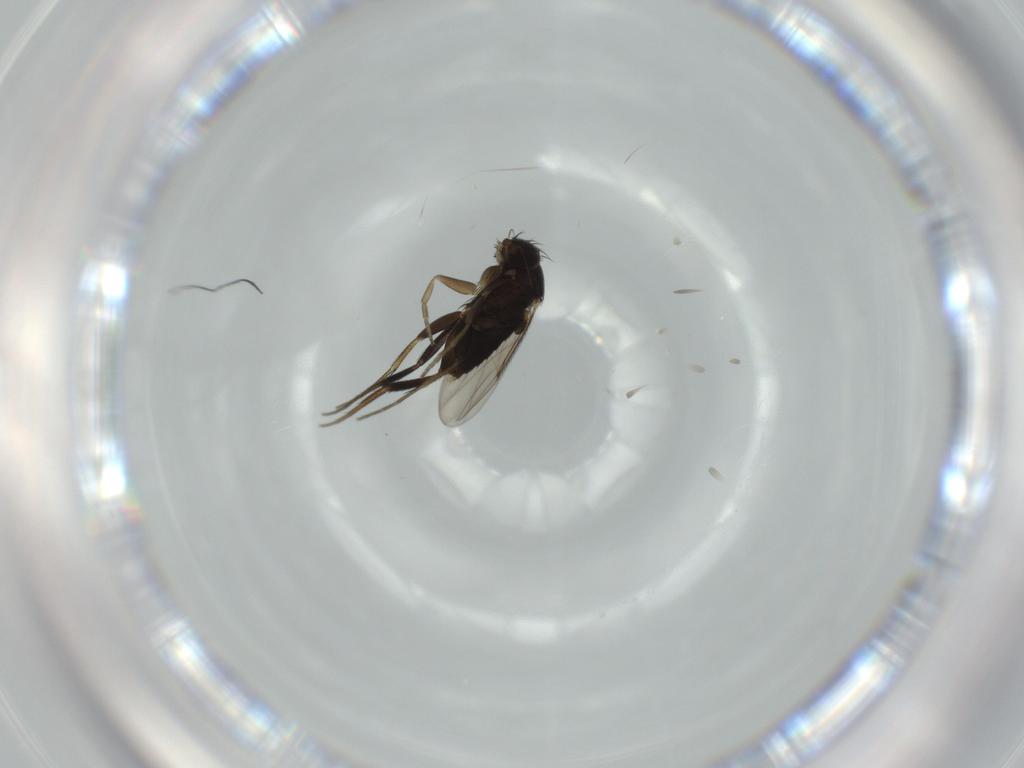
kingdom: Animalia
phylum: Arthropoda
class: Insecta
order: Diptera
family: Phoridae
